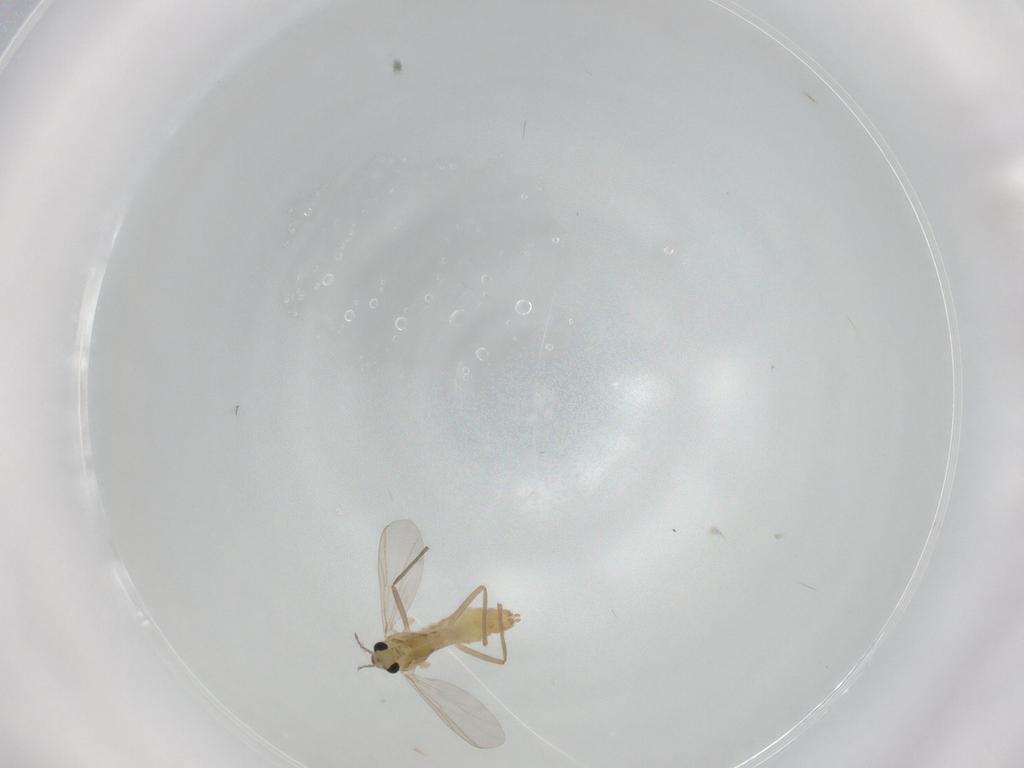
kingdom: Animalia
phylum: Arthropoda
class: Insecta
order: Diptera
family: Chironomidae
